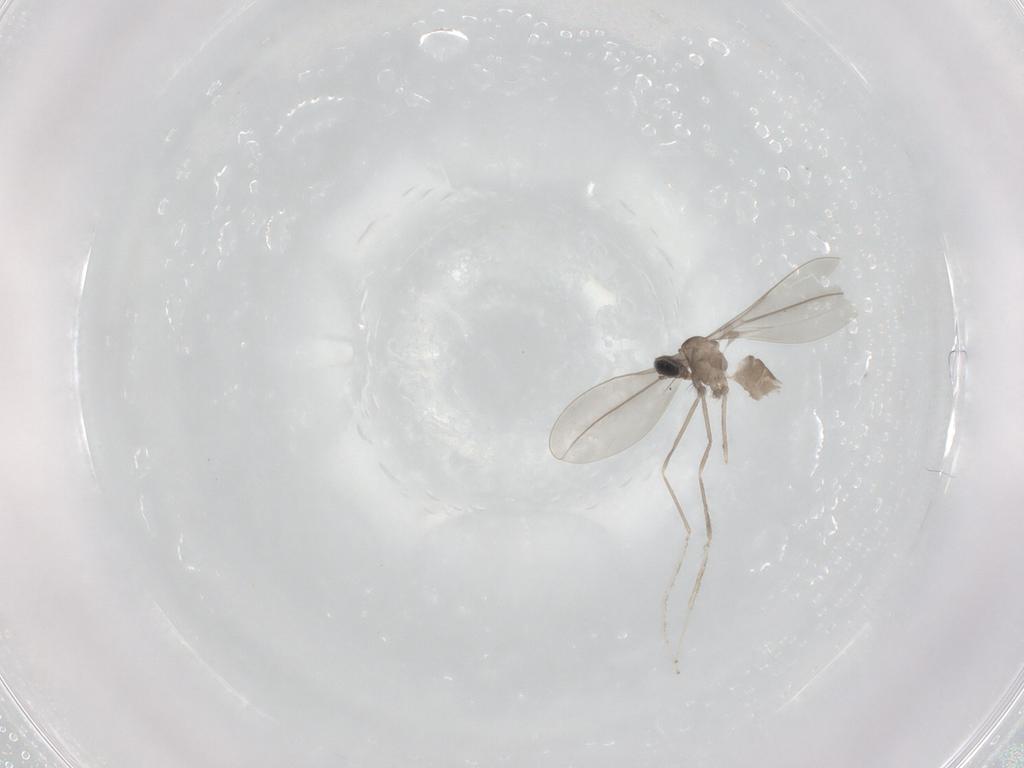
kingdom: Animalia
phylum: Arthropoda
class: Insecta
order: Diptera
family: Cecidomyiidae
